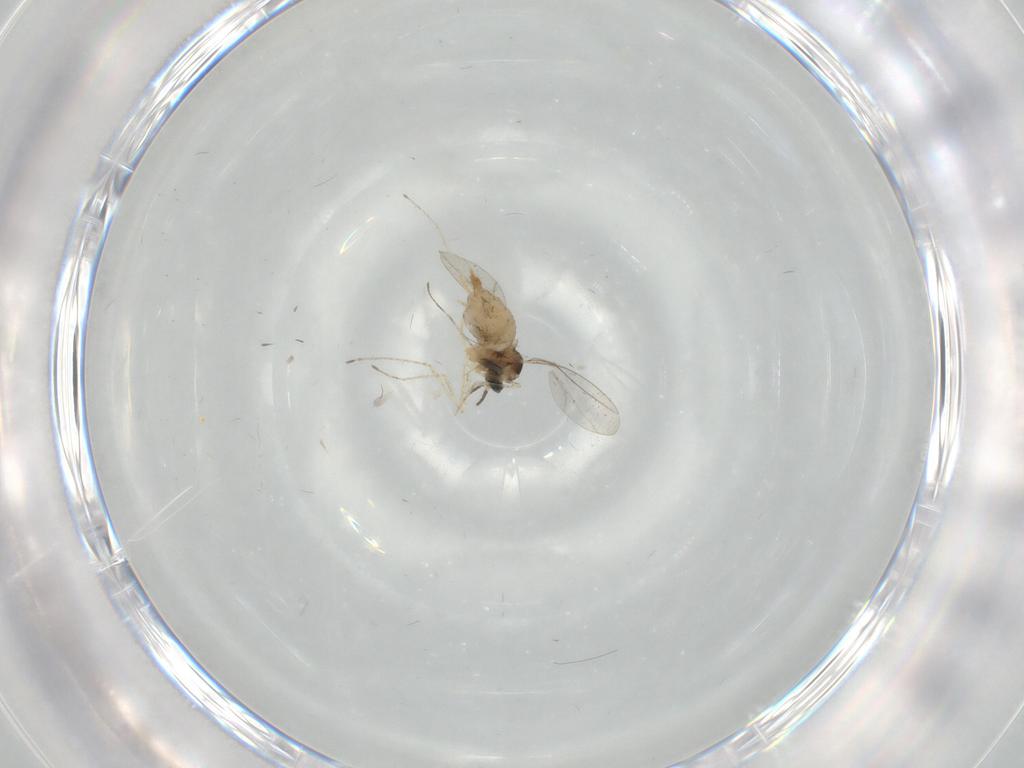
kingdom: Animalia
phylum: Arthropoda
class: Insecta
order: Diptera
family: Cecidomyiidae
